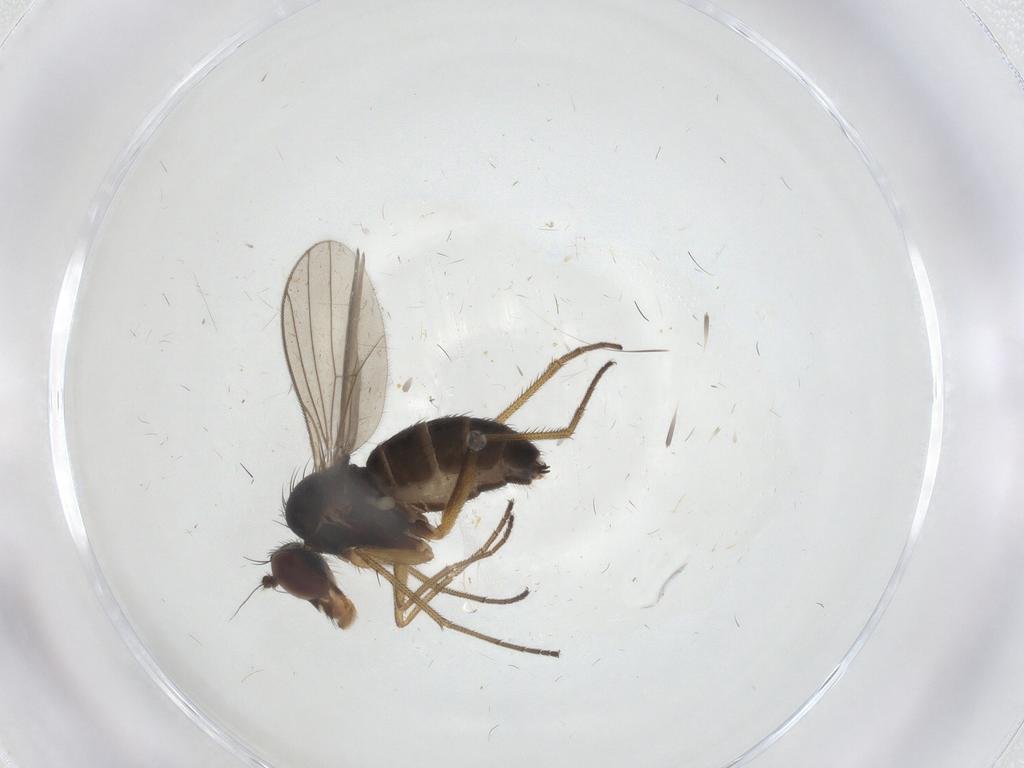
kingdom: Animalia
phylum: Arthropoda
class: Insecta
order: Diptera
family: Dolichopodidae
